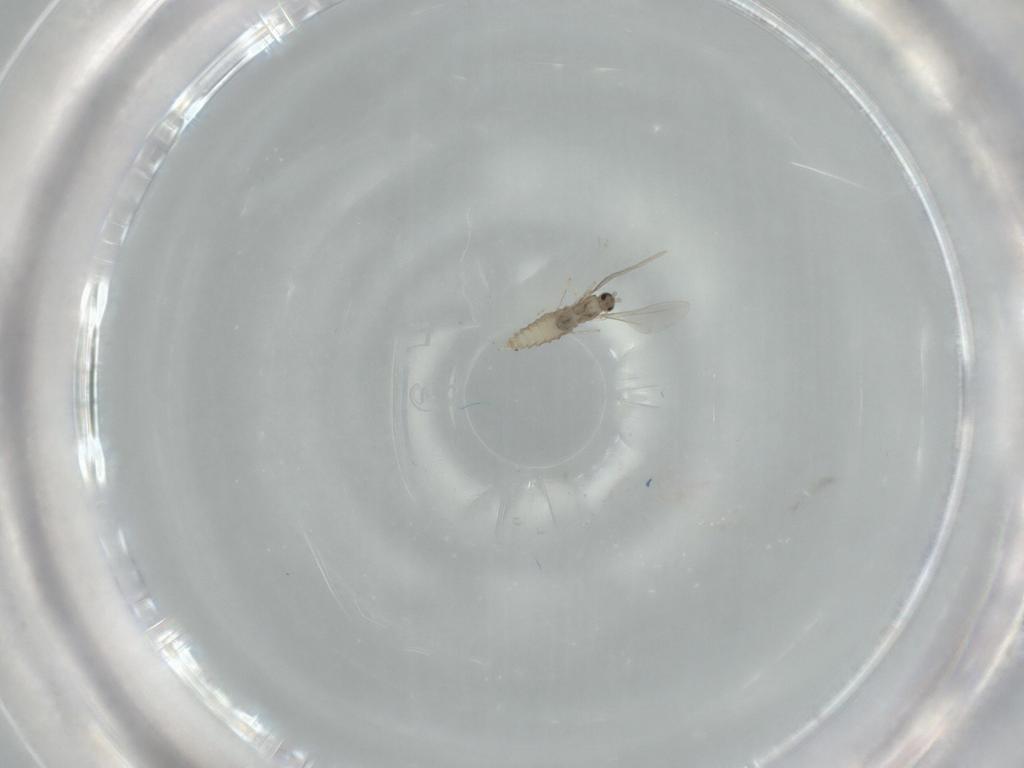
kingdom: Animalia
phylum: Arthropoda
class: Insecta
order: Diptera
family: Cecidomyiidae
